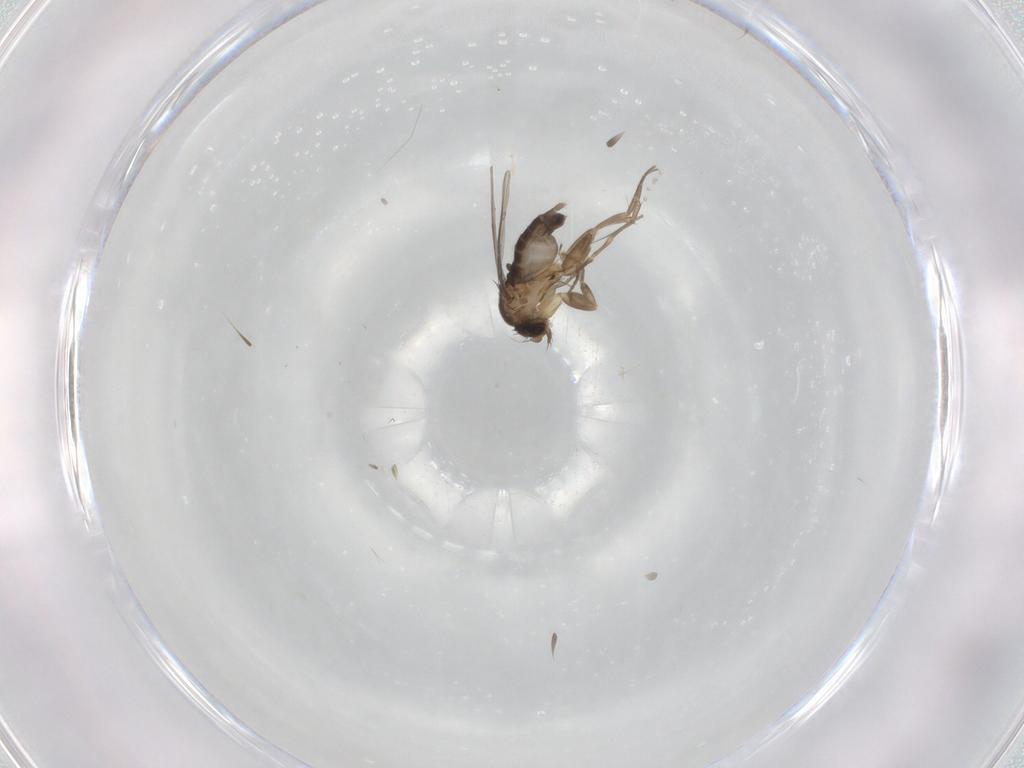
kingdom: Animalia
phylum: Arthropoda
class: Insecta
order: Diptera
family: Phoridae
